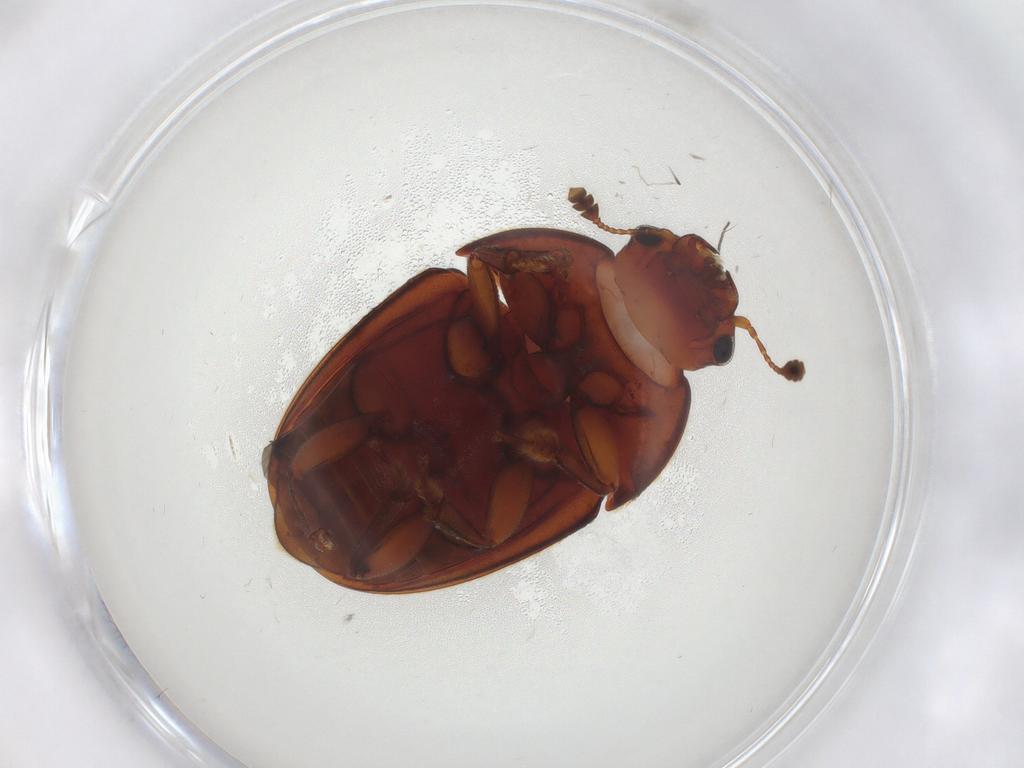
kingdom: Animalia
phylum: Arthropoda
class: Insecta
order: Coleoptera
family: Nitidulidae
